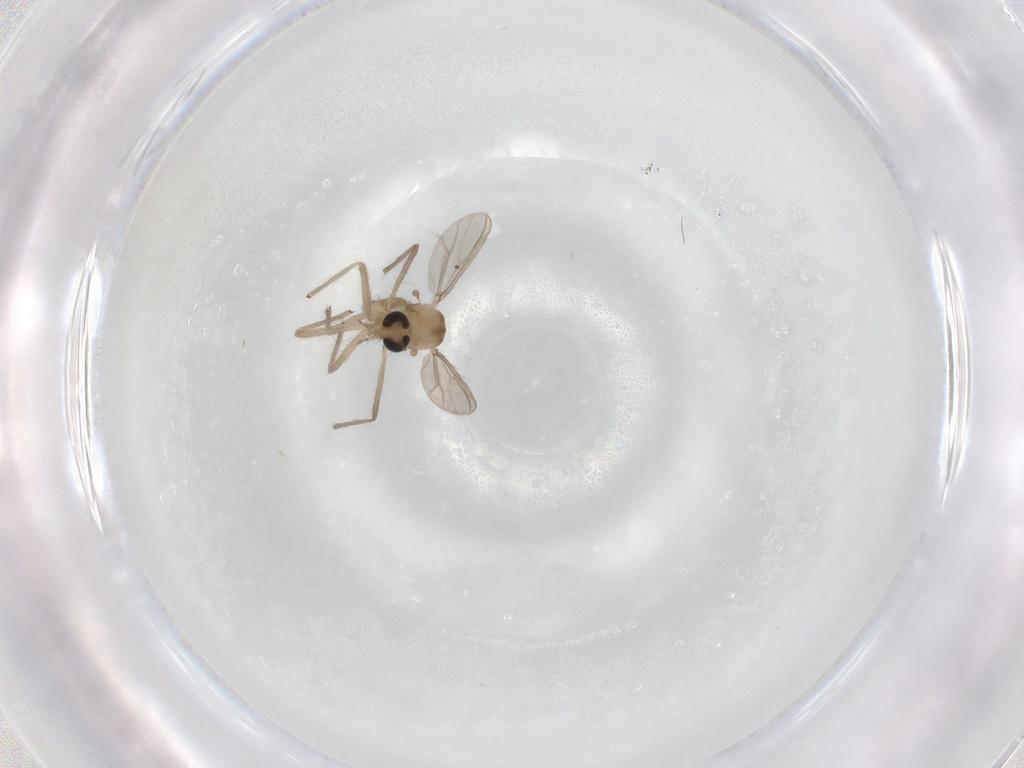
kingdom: Animalia
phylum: Arthropoda
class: Insecta
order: Diptera
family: Chironomidae
